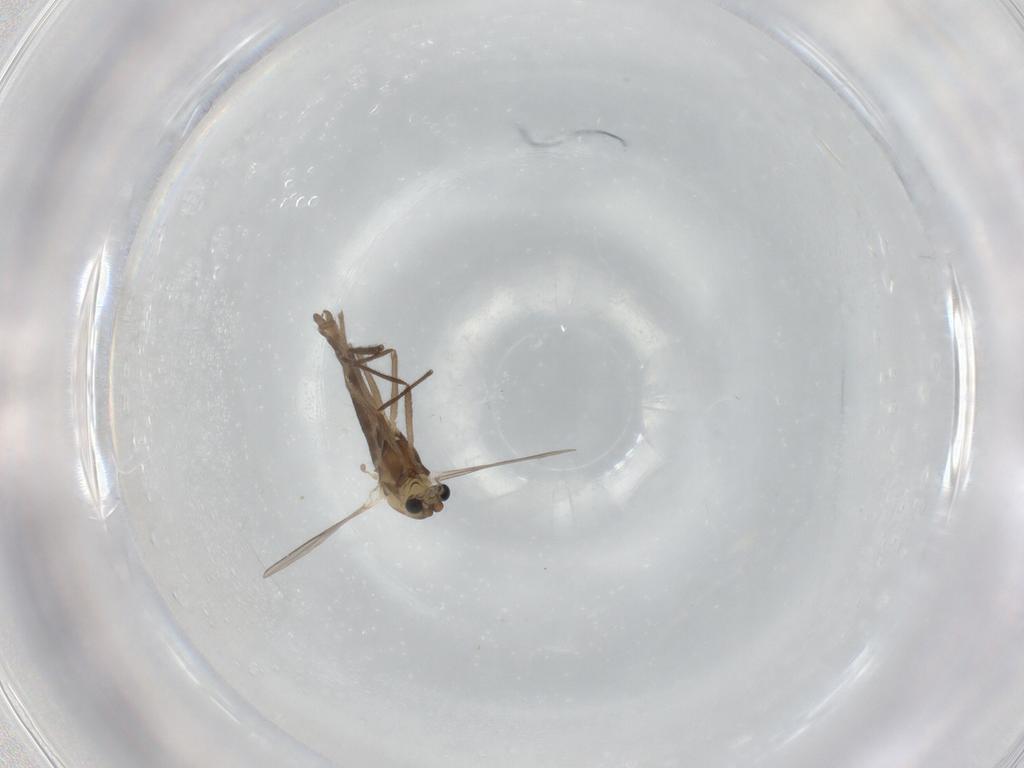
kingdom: Animalia
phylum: Arthropoda
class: Insecta
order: Diptera
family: Chironomidae
